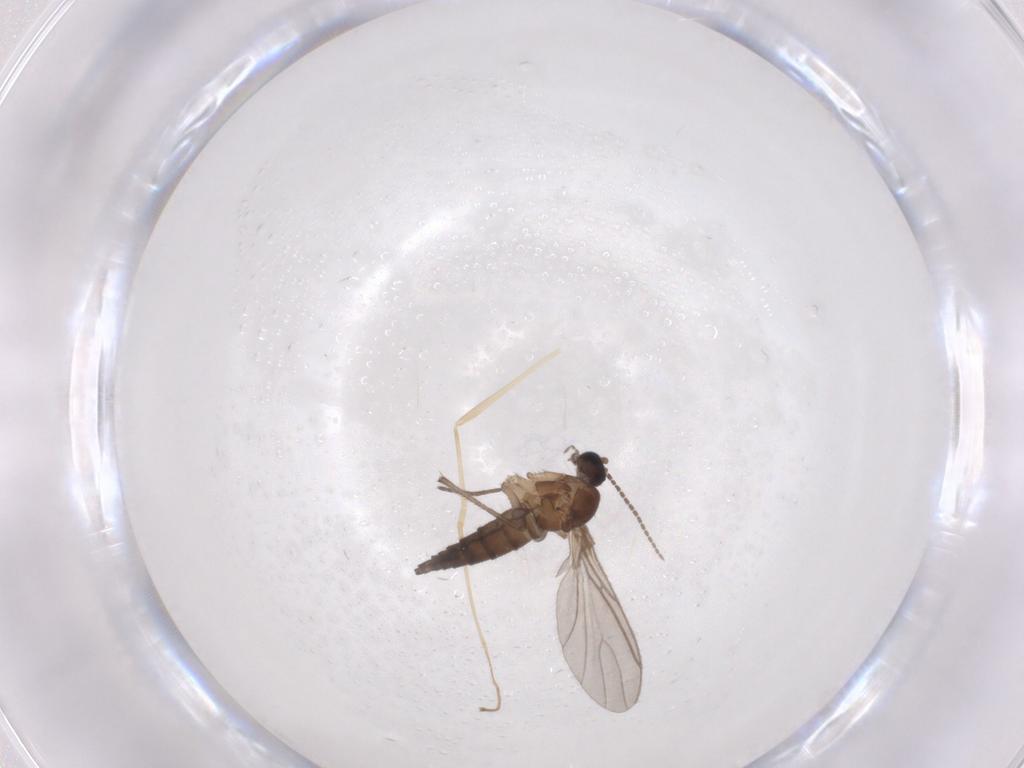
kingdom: Animalia
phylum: Arthropoda
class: Insecta
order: Diptera
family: Sciaridae
